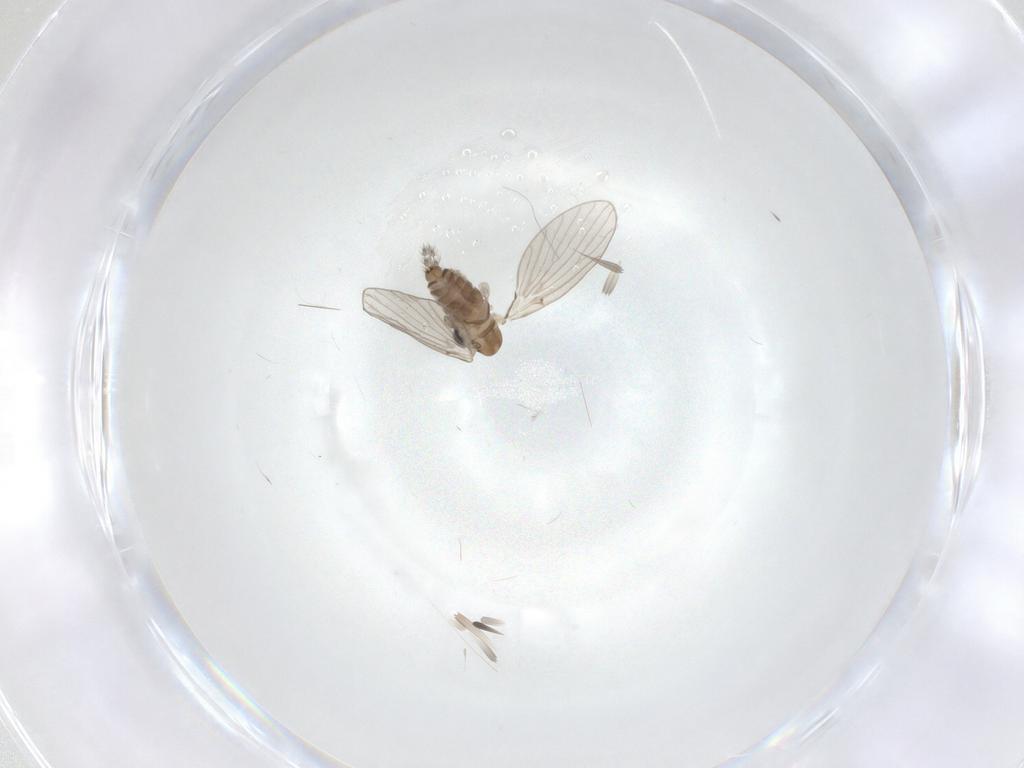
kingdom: Animalia
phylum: Arthropoda
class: Insecta
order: Diptera
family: Psychodidae
